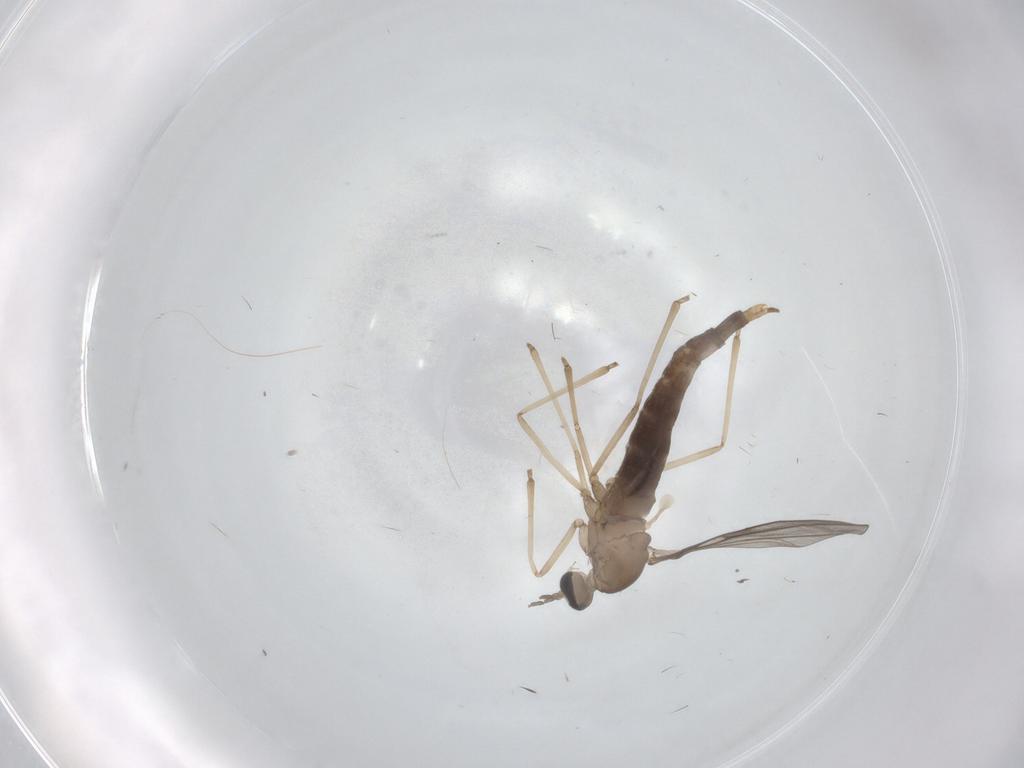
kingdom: Animalia
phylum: Arthropoda
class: Insecta
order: Diptera
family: Cecidomyiidae
